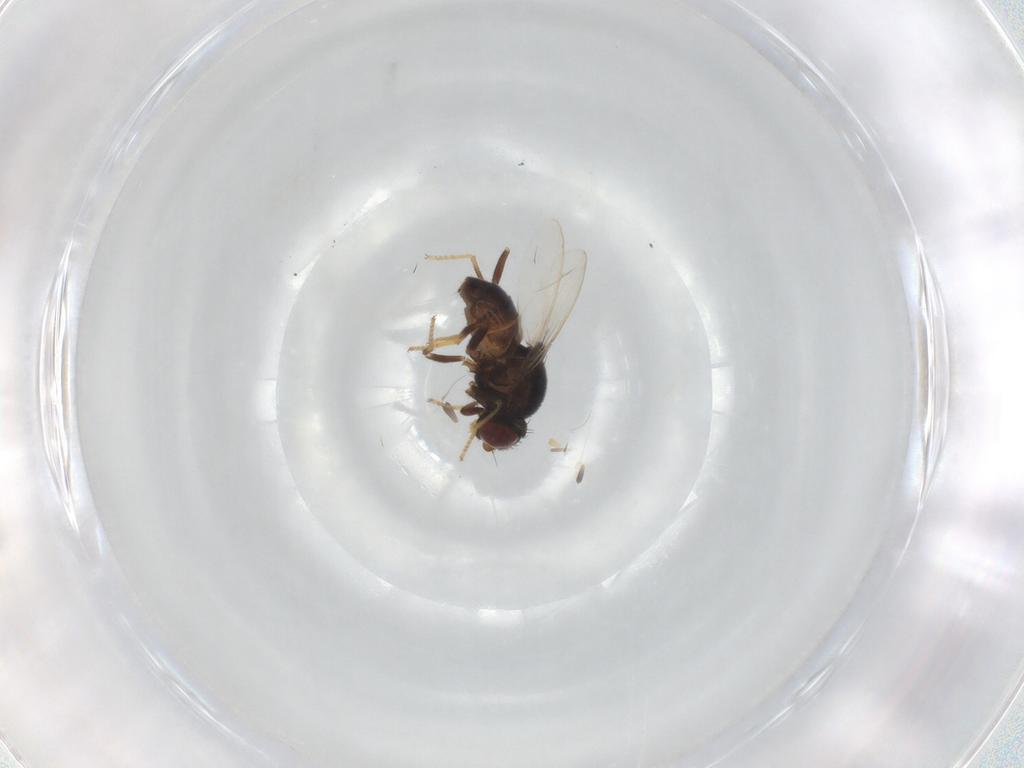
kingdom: Animalia
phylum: Arthropoda
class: Insecta
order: Diptera
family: Chloropidae
